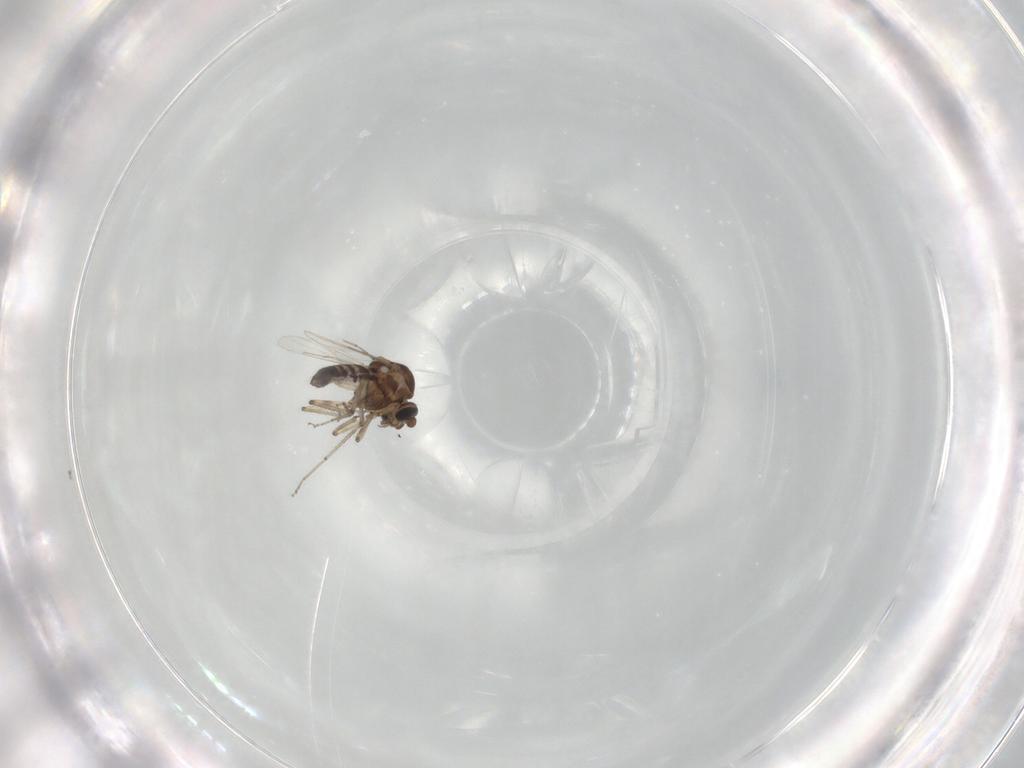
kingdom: Animalia
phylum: Arthropoda
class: Insecta
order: Diptera
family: Ceratopogonidae
